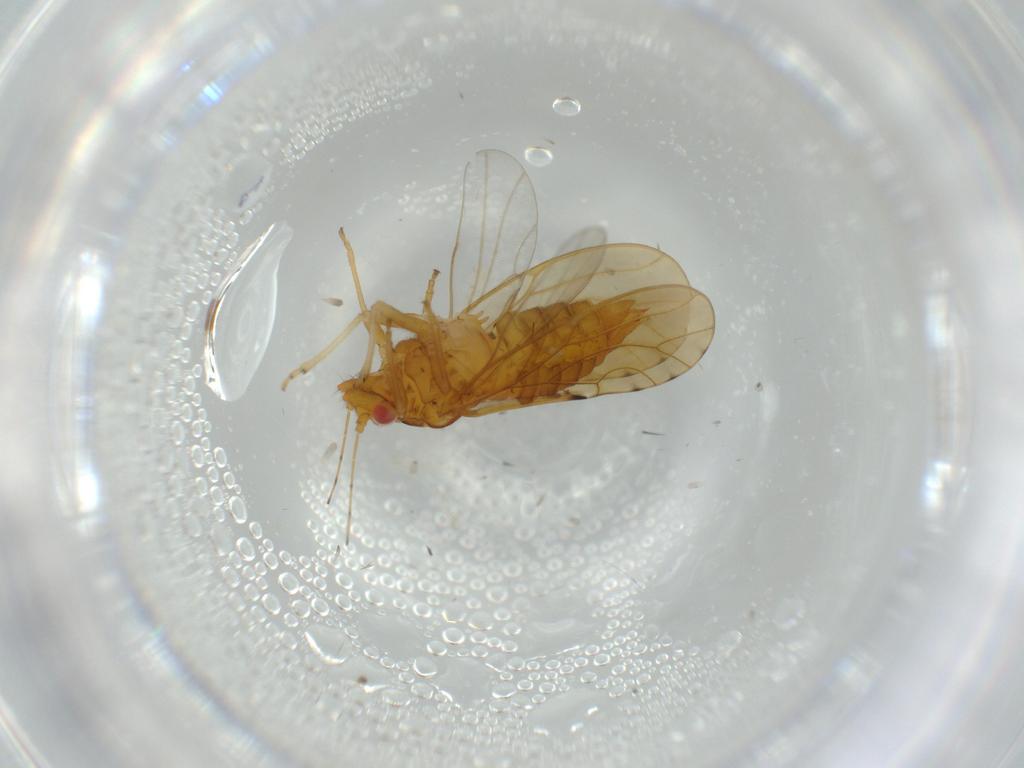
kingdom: Animalia
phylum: Arthropoda
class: Insecta
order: Hemiptera
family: Psylloidea_incertae_sedis
